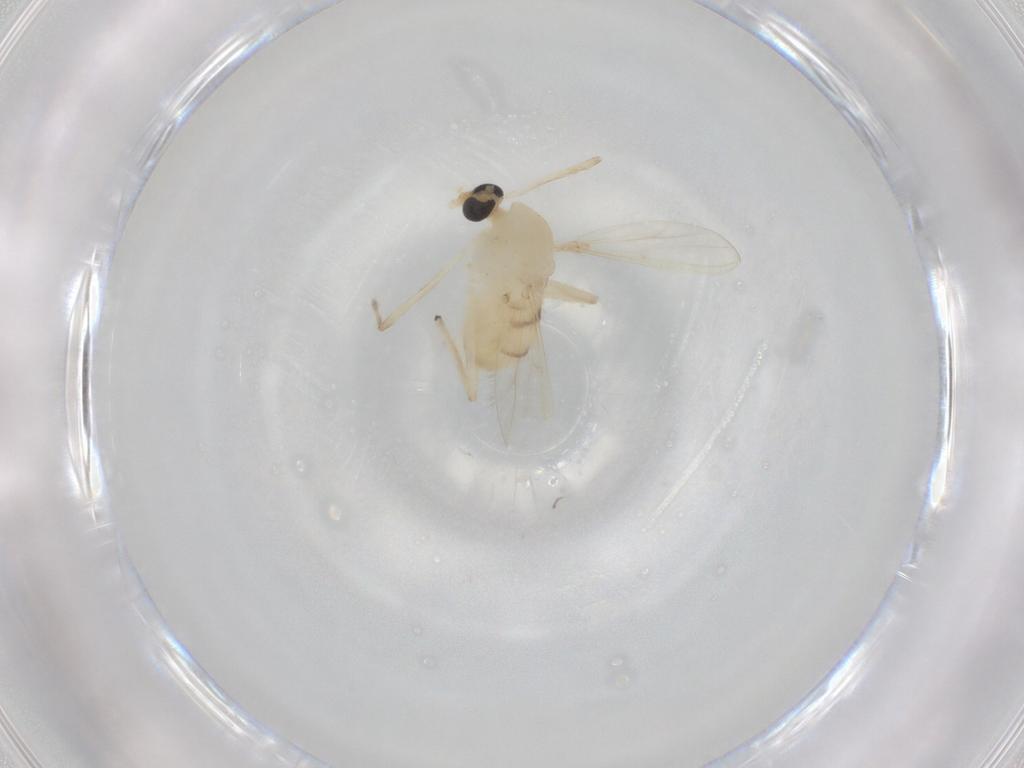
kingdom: Animalia
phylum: Arthropoda
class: Insecta
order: Diptera
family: Chironomidae
